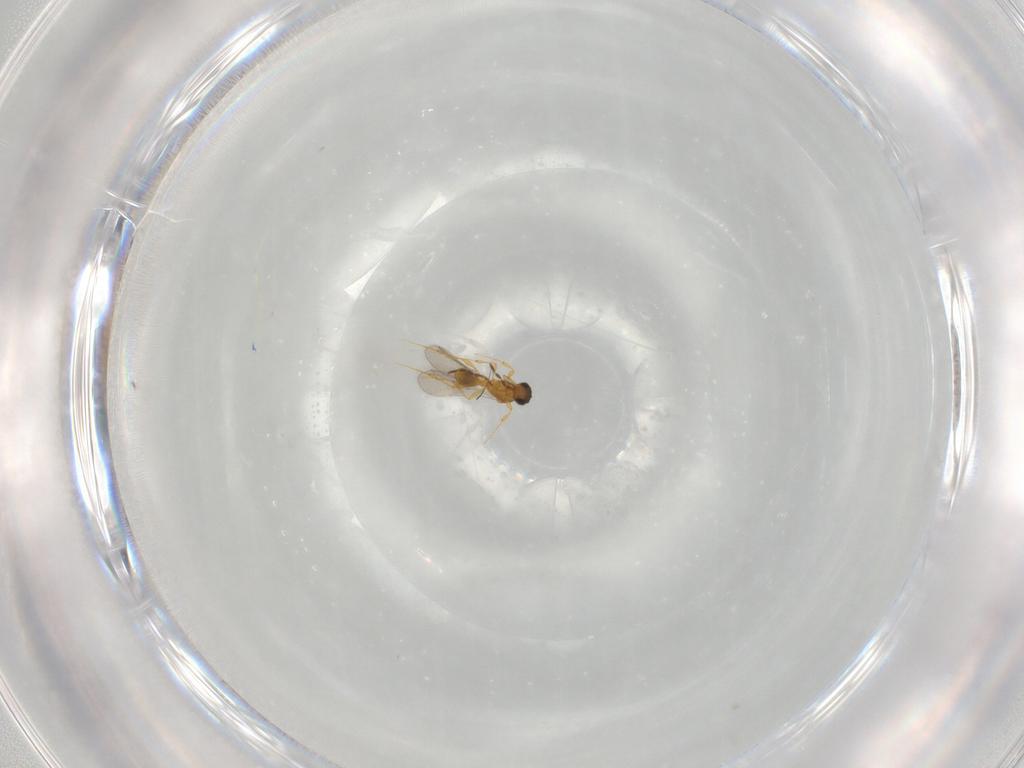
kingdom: Animalia
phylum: Arthropoda
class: Insecta
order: Hymenoptera
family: Platygastridae
